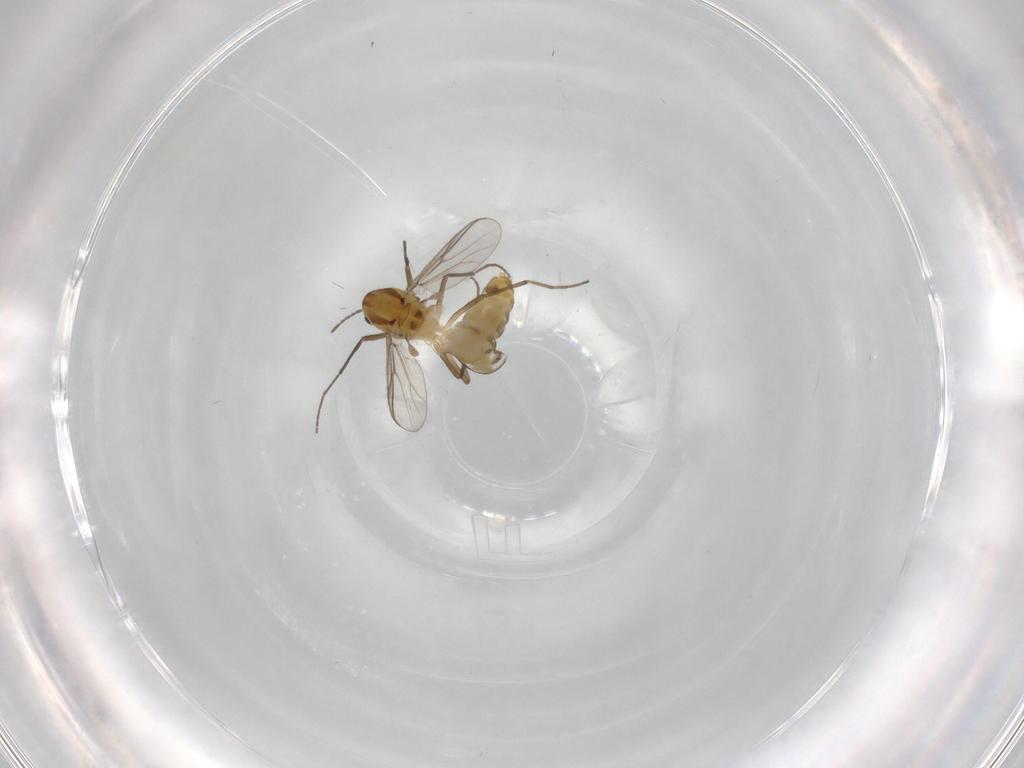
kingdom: Animalia
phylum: Arthropoda
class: Insecta
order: Diptera
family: Chironomidae
